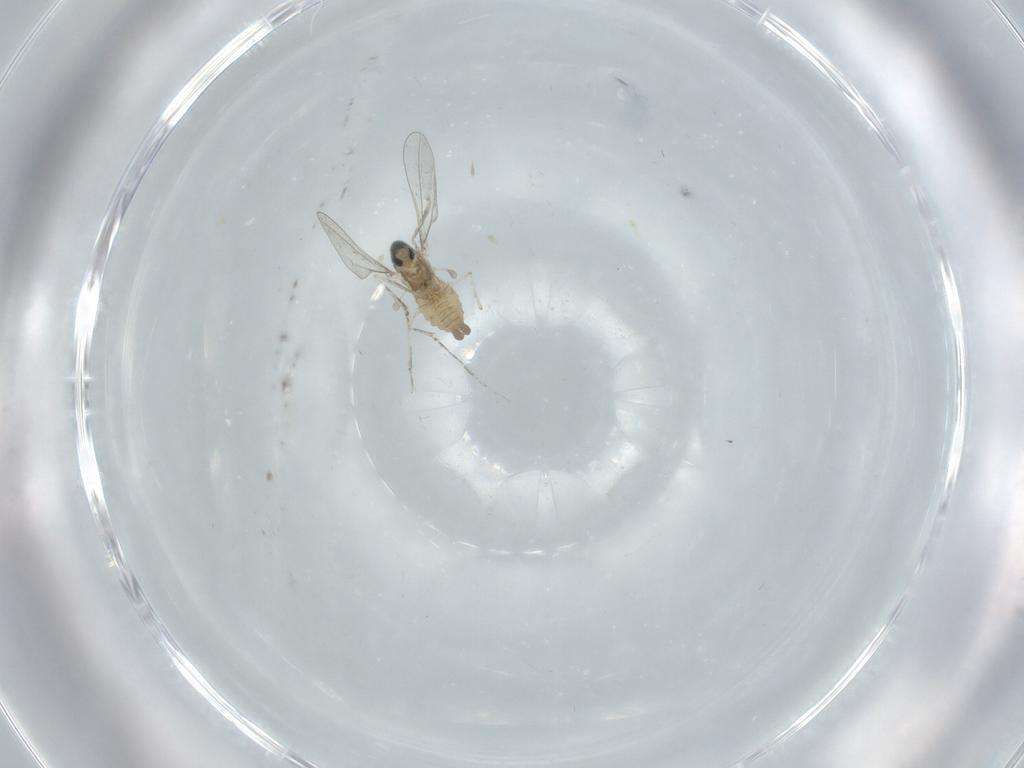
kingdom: Animalia
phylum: Arthropoda
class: Insecta
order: Diptera
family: Cecidomyiidae
